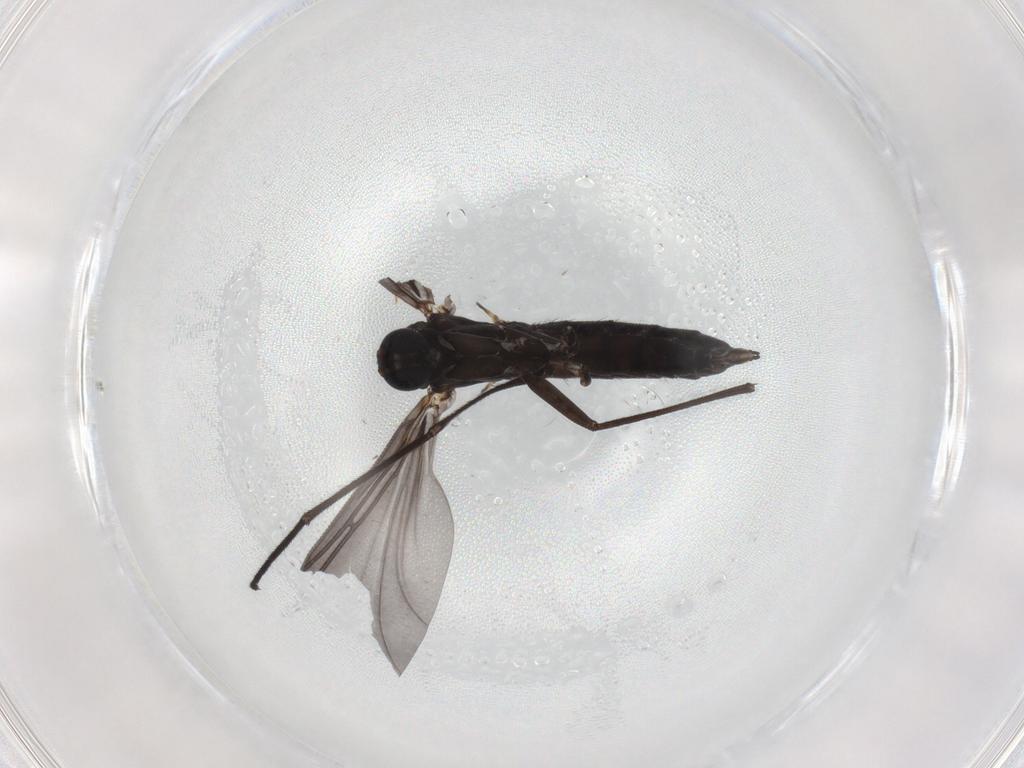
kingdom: Animalia
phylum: Arthropoda
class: Insecta
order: Diptera
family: Sciaridae
